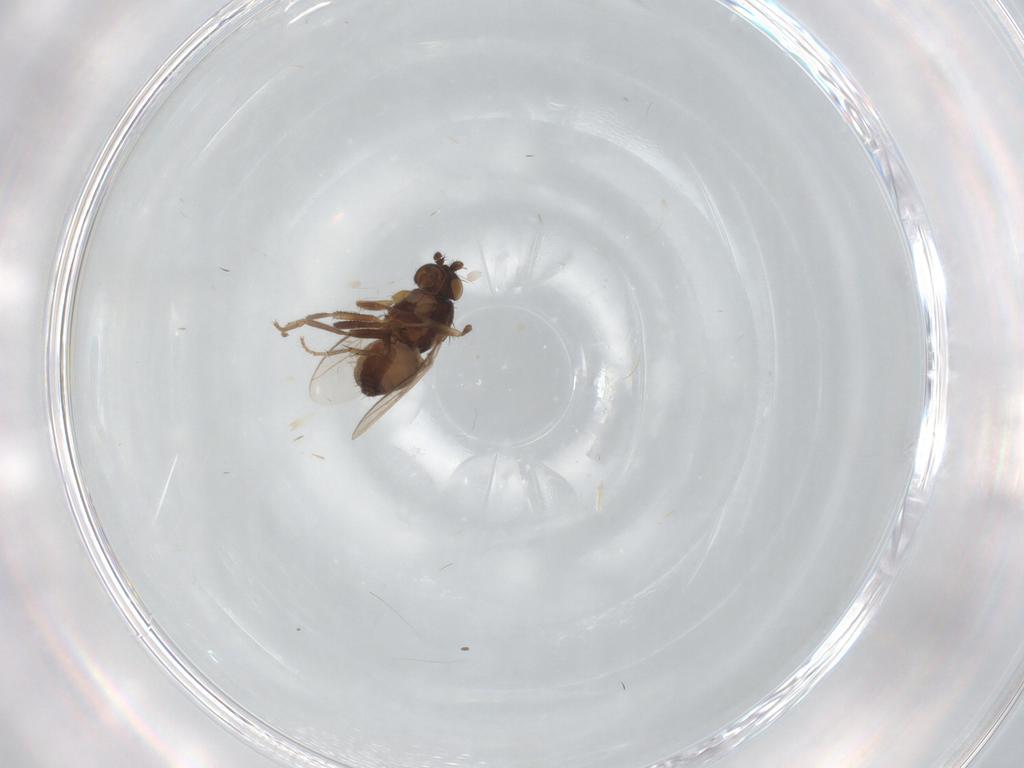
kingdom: Animalia
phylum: Arthropoda
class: Insecta
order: Diptera
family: Sphaeroceridae
